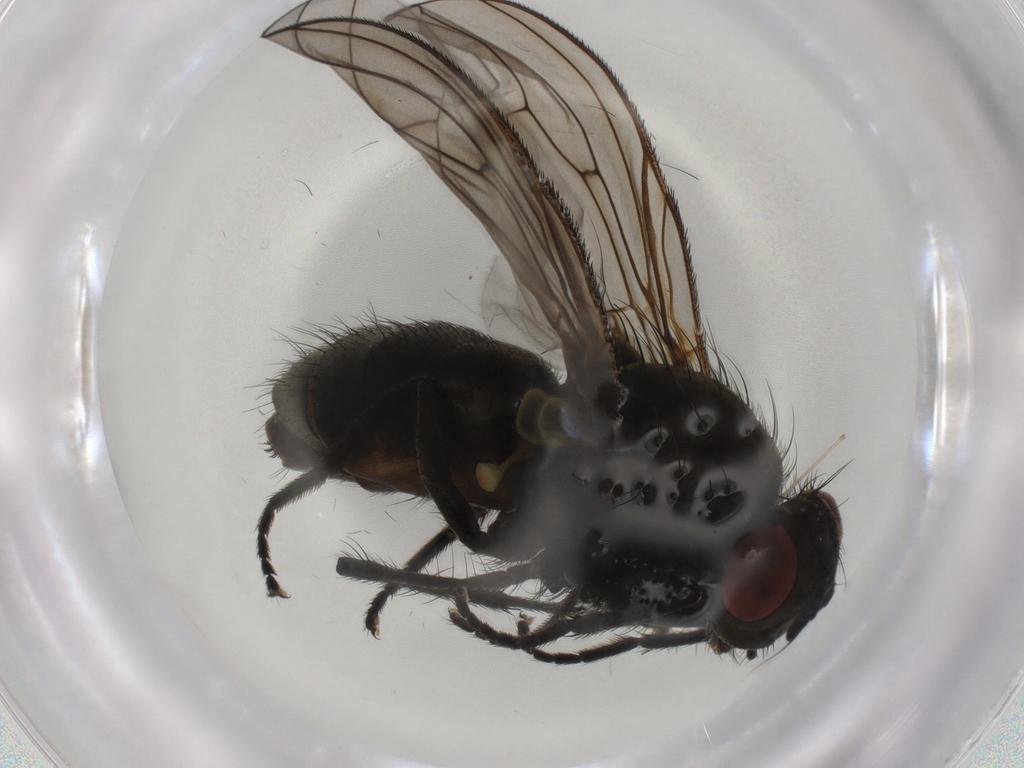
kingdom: Animalia
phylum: Arthropoda
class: Insecta
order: Diptera
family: Muscidae
